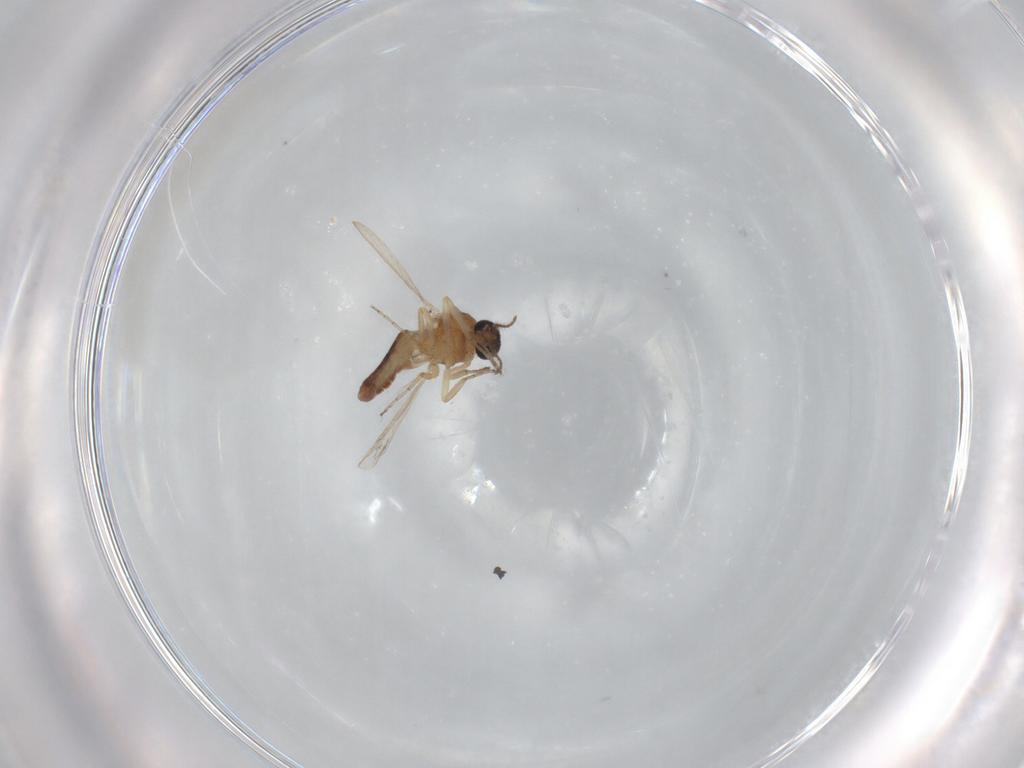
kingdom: Animalia
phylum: Arthropoda
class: Insecta
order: Diptera
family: Ceratopogonidae
